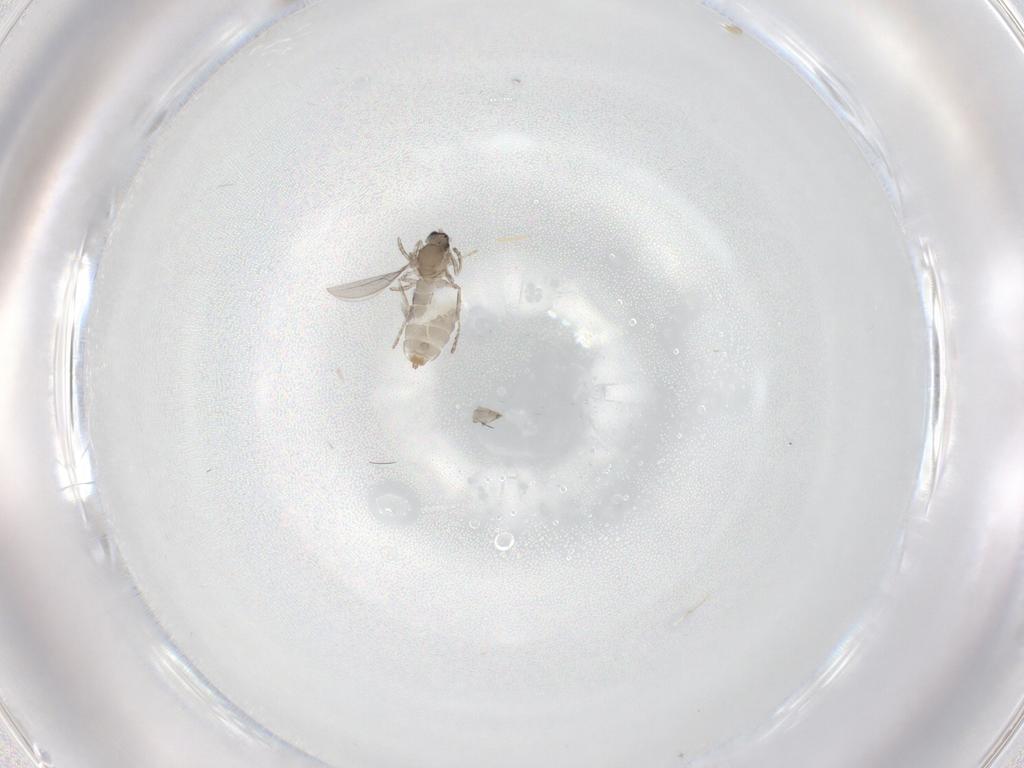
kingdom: Animalia
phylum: Arthropoda
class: Insecta
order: Diptera
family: Cecidomyiidae
